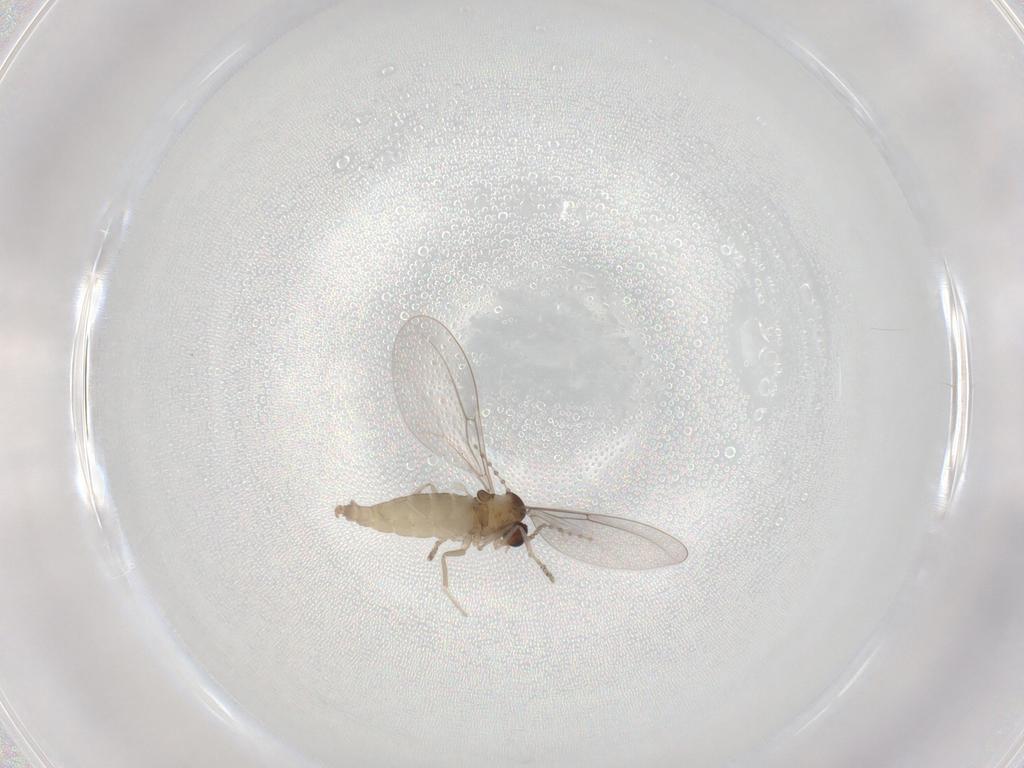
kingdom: Animalia
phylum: Arthropoda
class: Insecta
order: Diptera
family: Cecidomyiidae
